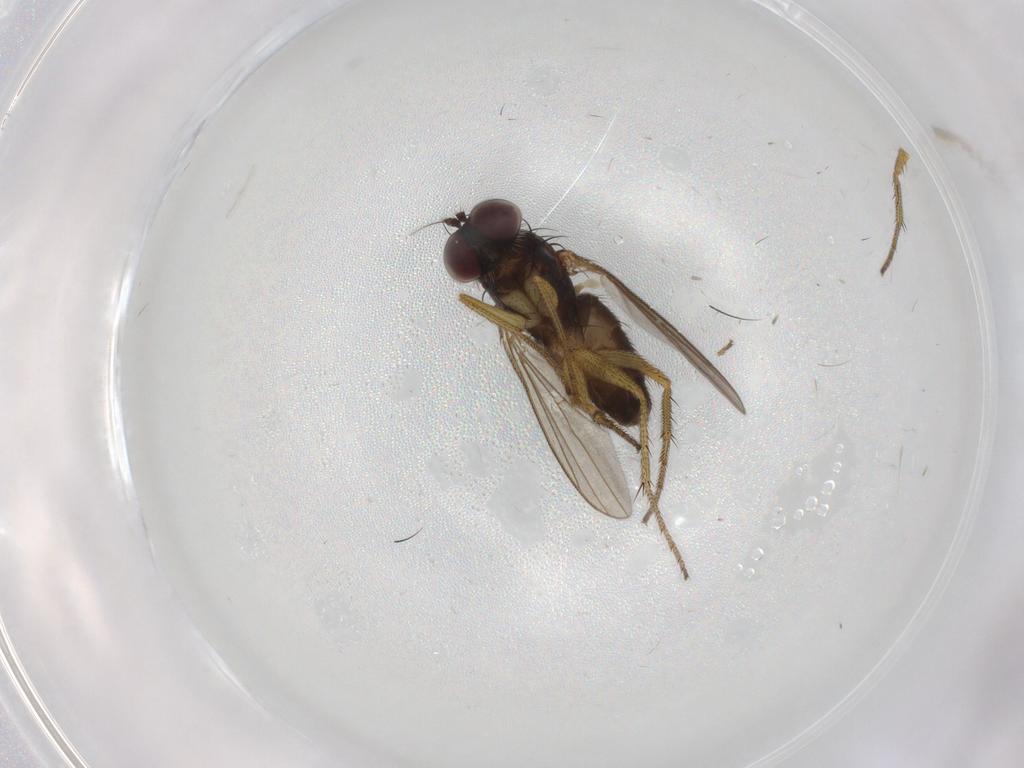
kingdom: Animalia
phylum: Arthropoda
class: Insecta
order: Diptera
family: Dolichopodidae
